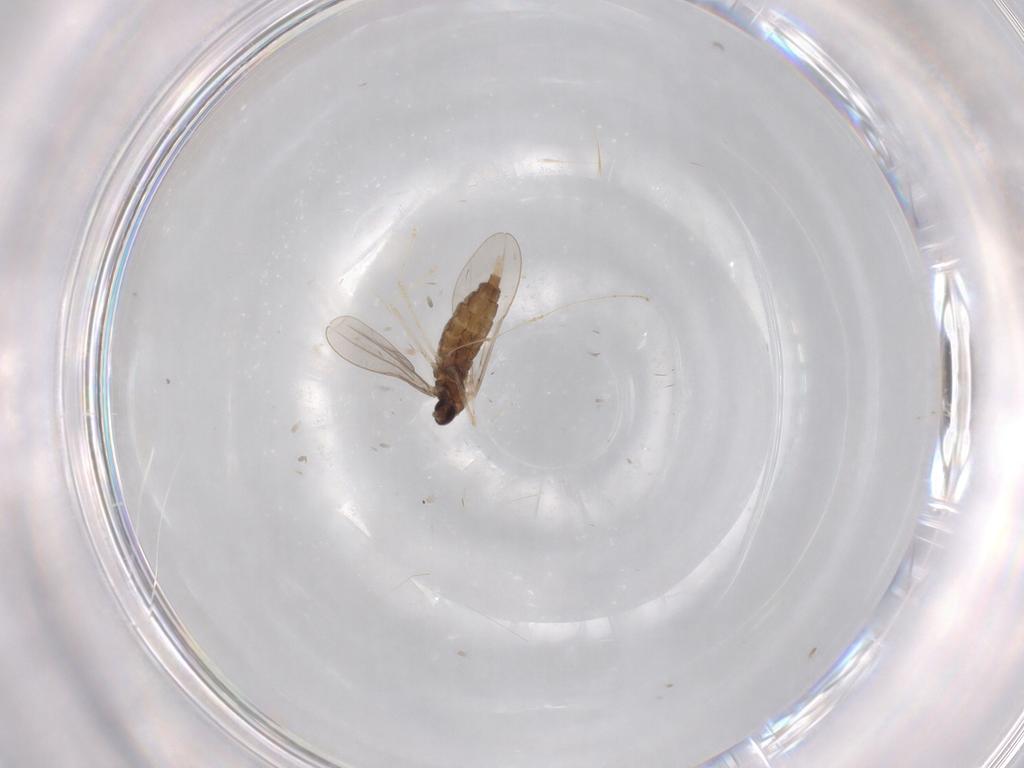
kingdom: Animalia
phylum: Arthropoda
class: Insecta
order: Diptera
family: Cecidomyiidae
